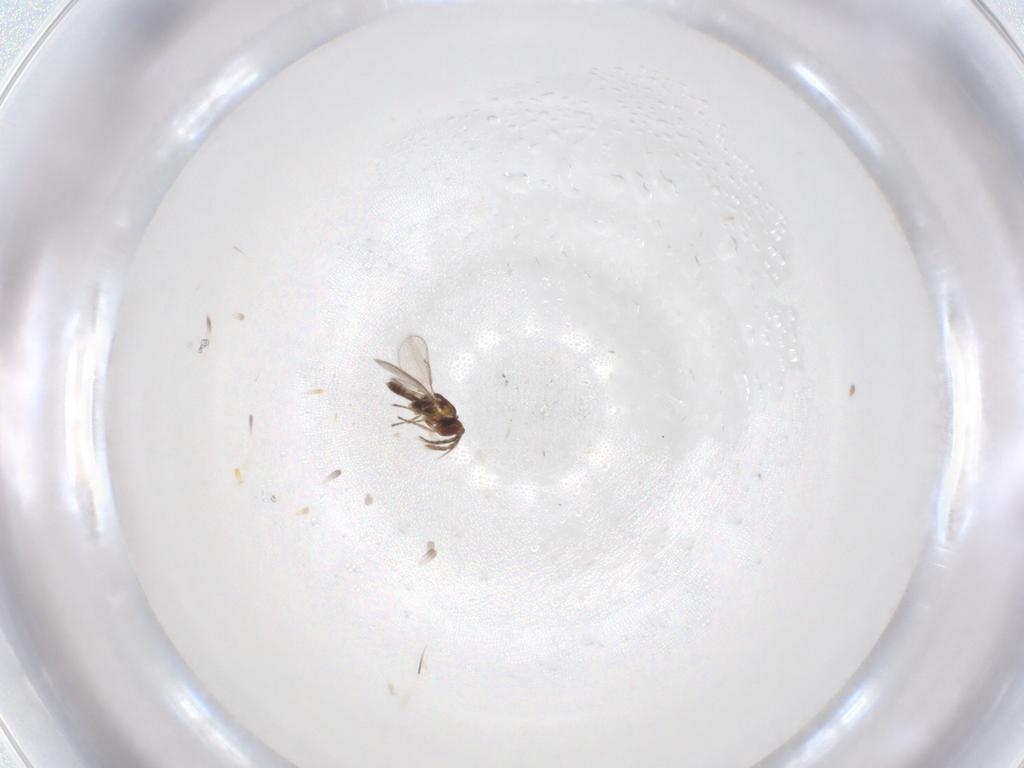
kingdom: Animalia
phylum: Arthropoda
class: Insecta
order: Hymenoptera
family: Eulophidae
